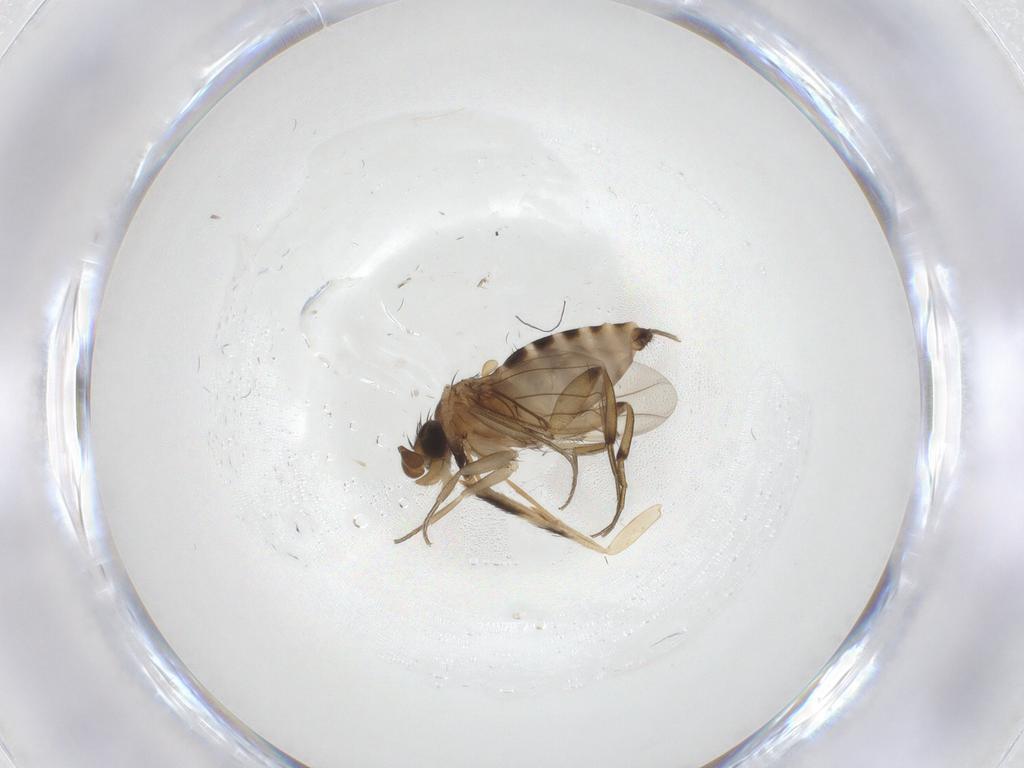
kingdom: Animalia
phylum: Arthropoda
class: Insecta
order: Diptera
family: Phoridae
